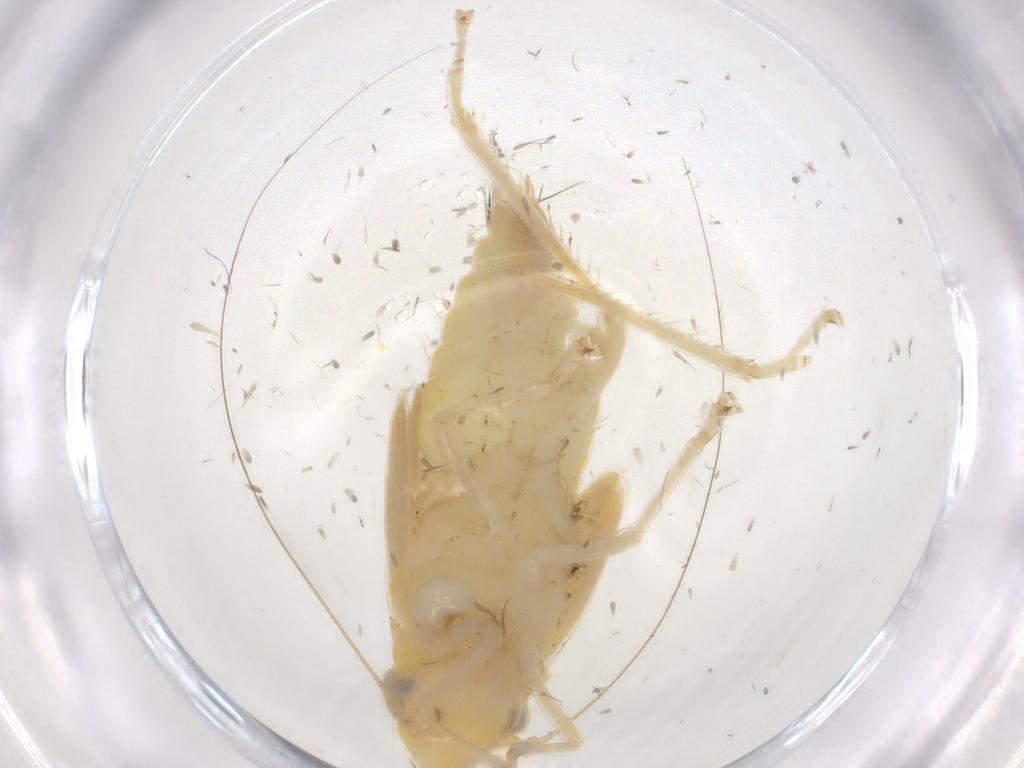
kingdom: Animalia
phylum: Arthropoda
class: Insecta
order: Hemiptera
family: Cicadellidae
